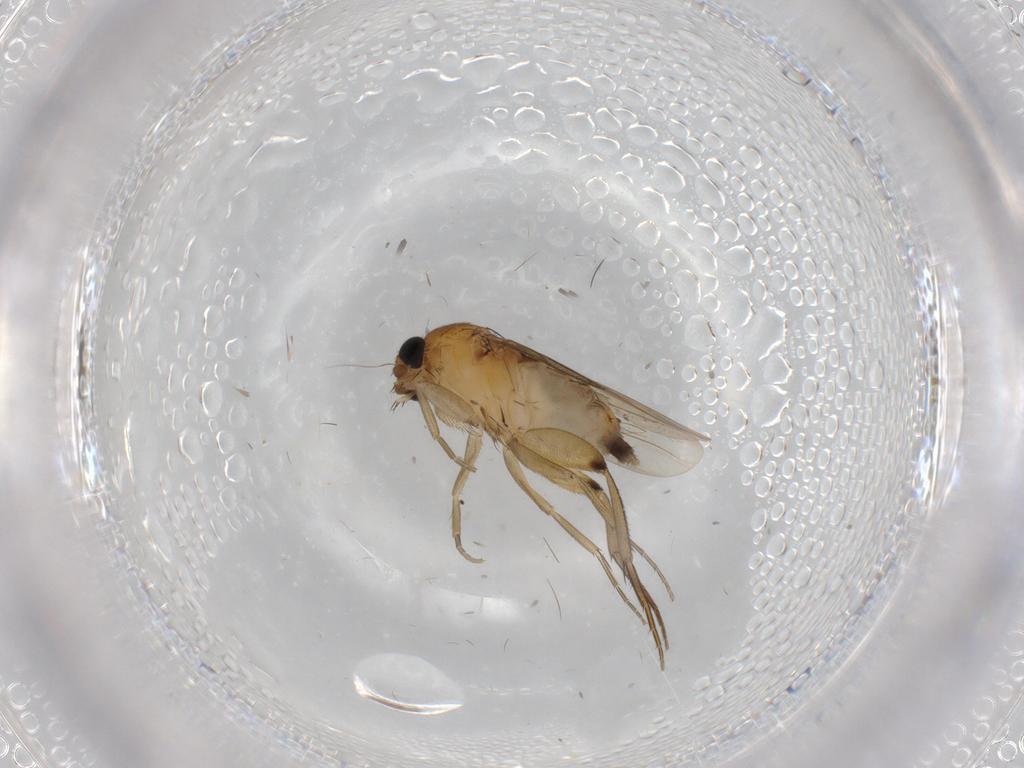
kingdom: Animalia
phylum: Arthropoda
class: Insecta
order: Diptera
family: Phoridae
